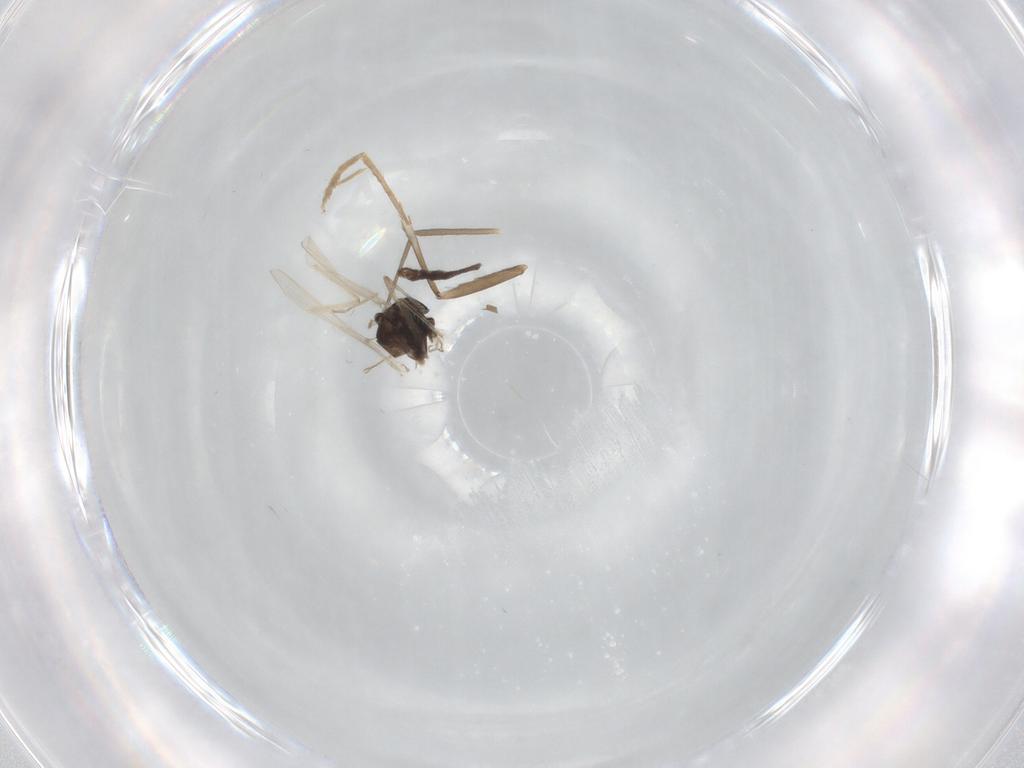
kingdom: Animalia
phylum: Arthropoda
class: Insecta
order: Diptera
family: Chironomidae
